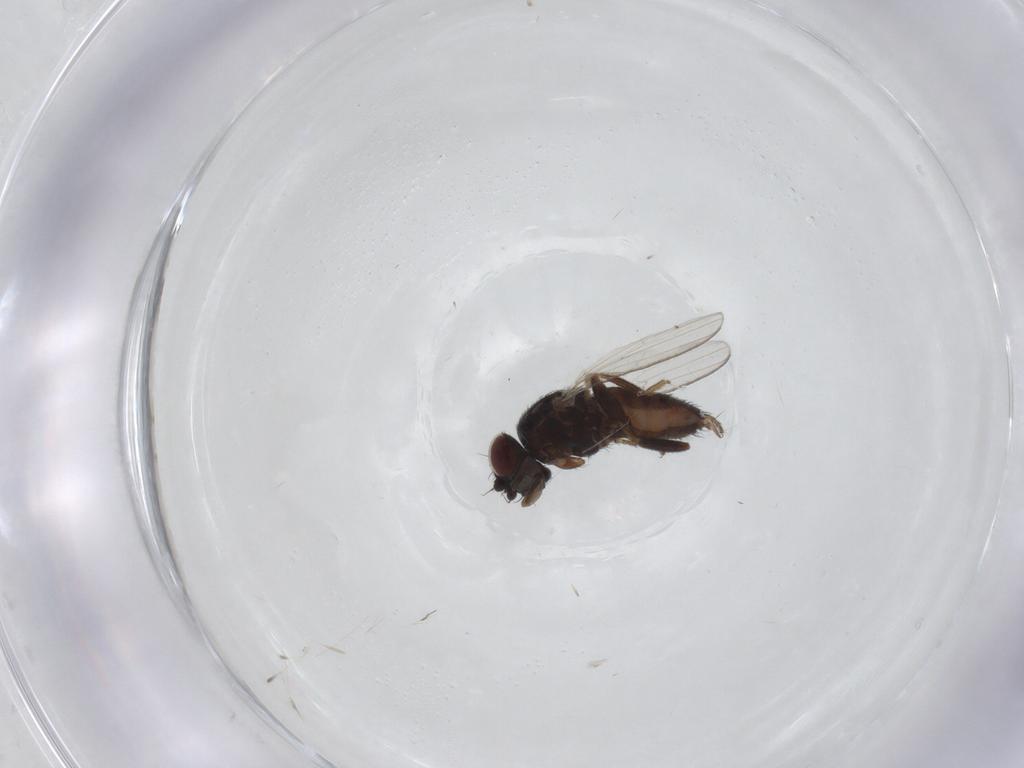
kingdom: Animalia
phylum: Arthropoda
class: Insecta
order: Diptera
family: Milichiidae
